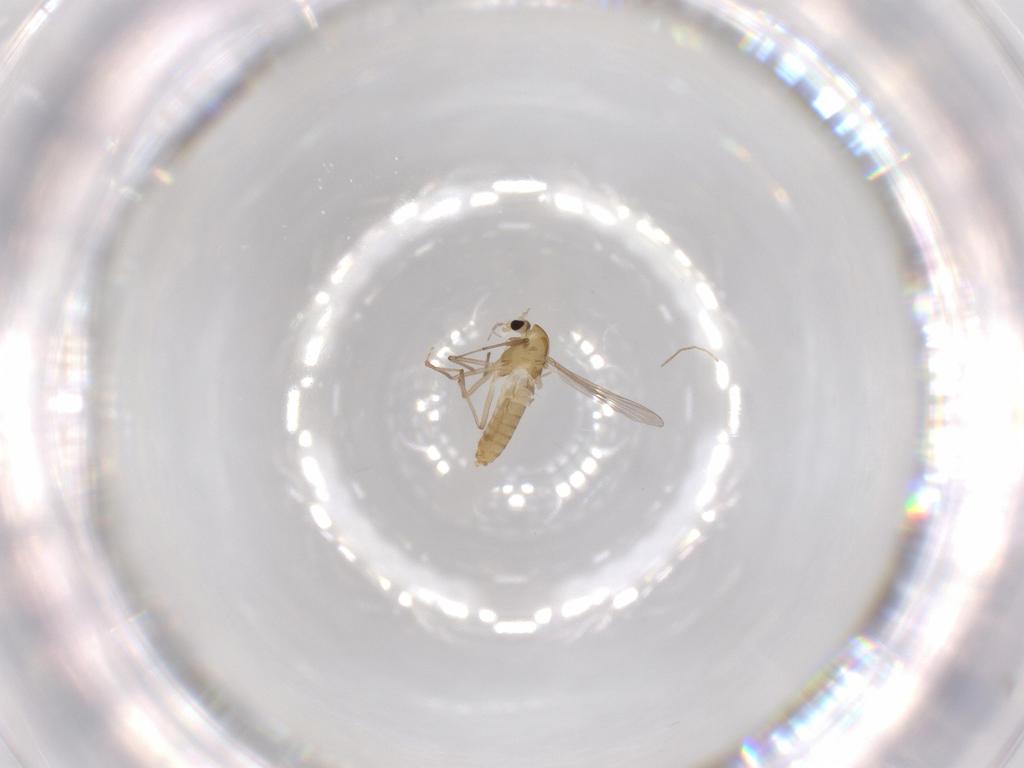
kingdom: Animalia
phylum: Arthropoda
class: Insecta
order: Diptera
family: Chironomidae
